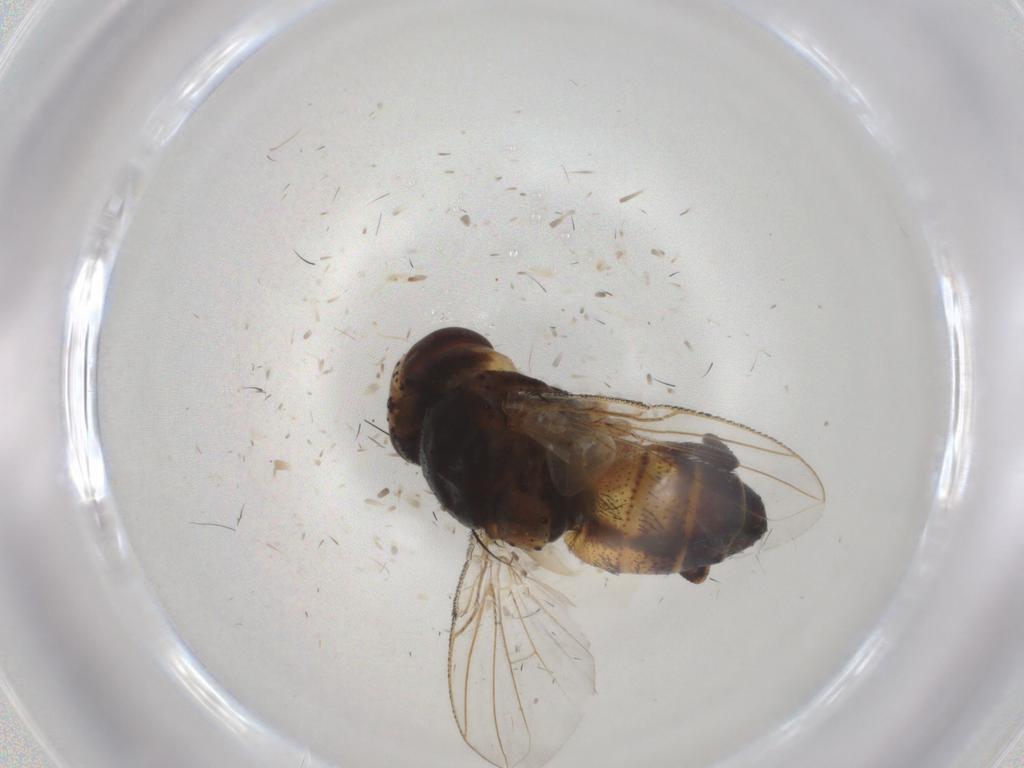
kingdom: Animalia
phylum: Arthropoda
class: Insecta
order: Diptera
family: Glossinidae
